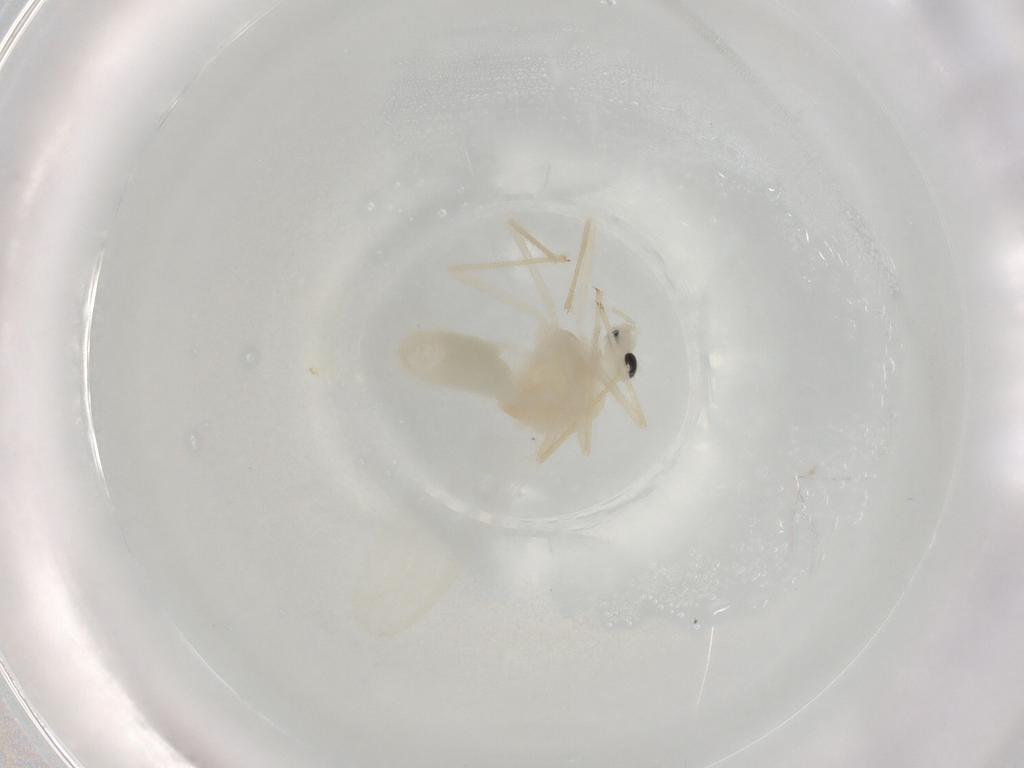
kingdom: Animalia
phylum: Arthropoda
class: Insecta
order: Diptera
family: Chironomidae
